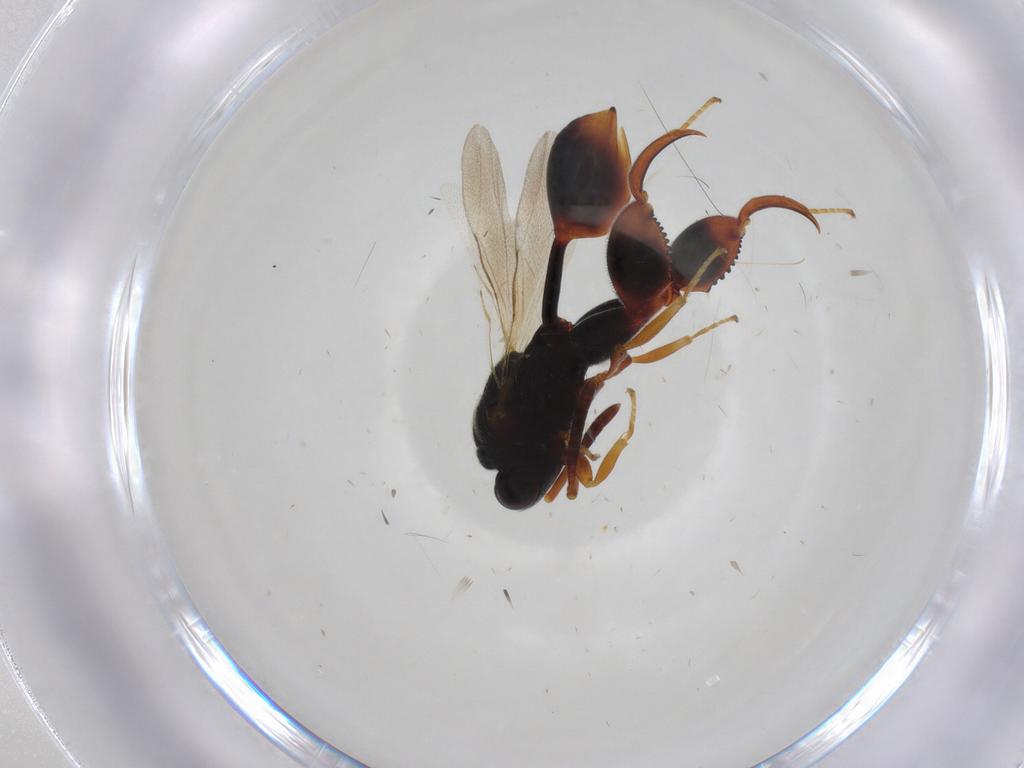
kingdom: Animalia
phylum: Arthropoda
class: Insecta
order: Hymenoptera
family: Chalcididae
